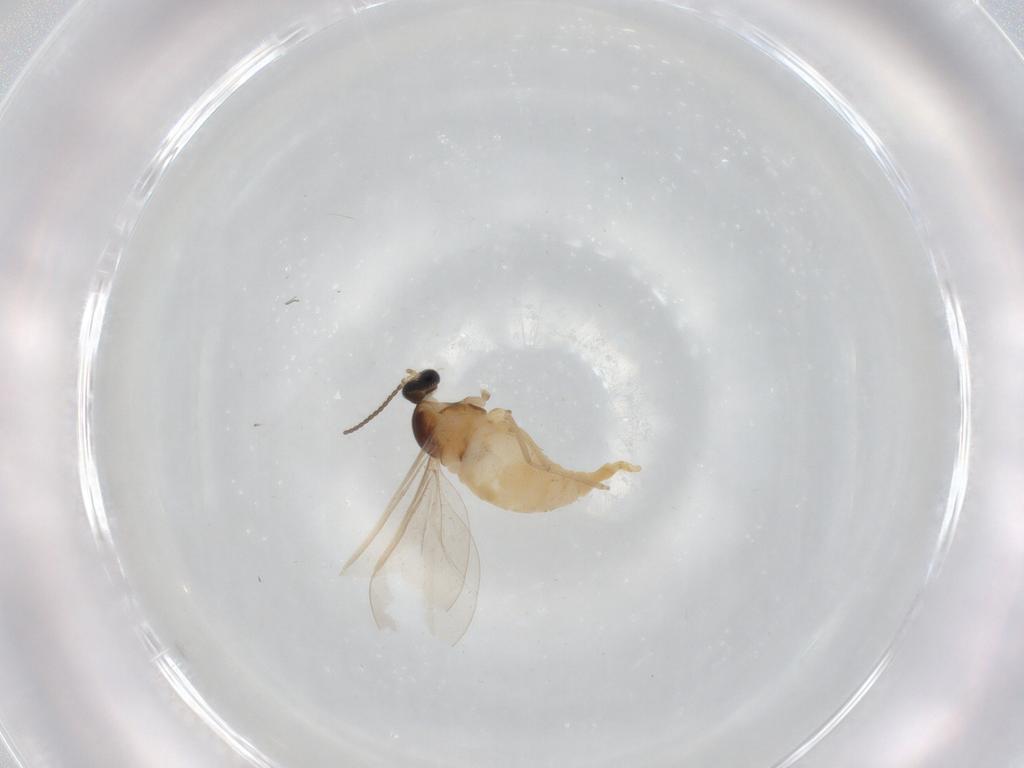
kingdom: Animalia
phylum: Arthropoda
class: Insecta
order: Diptera
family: Cecidomyiidae
